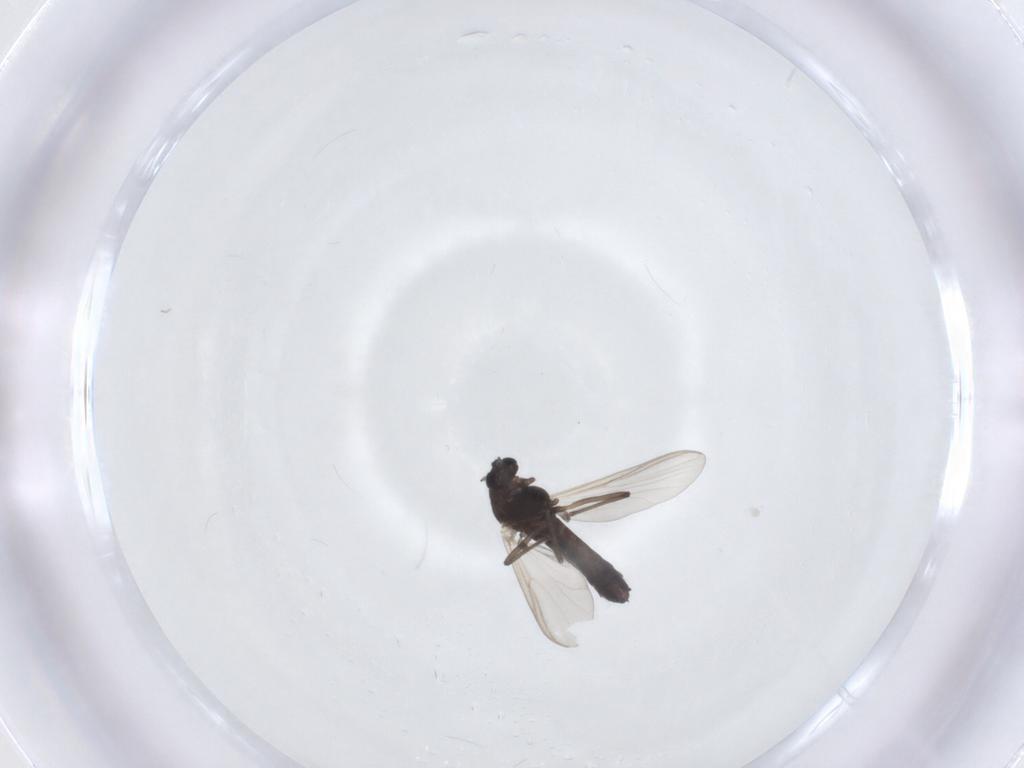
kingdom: Animalia
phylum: Arthropoda
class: Insecta
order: Diptera
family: Chironomidae
